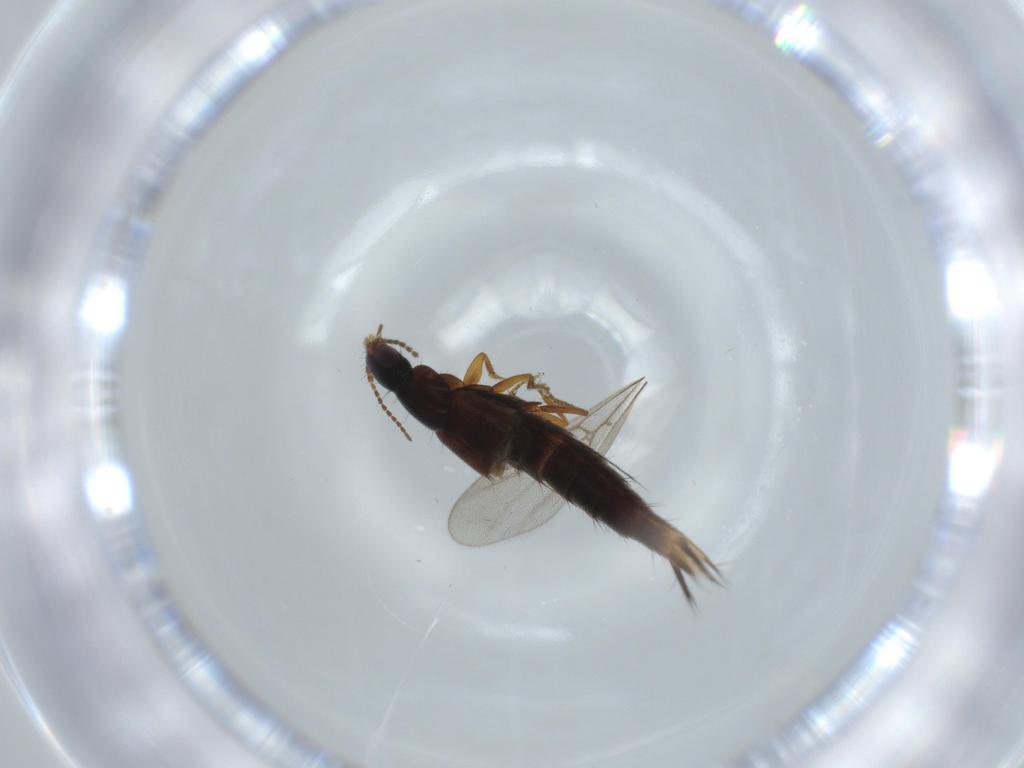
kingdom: Animalia
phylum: Arthropoda
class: Insecta
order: Coleoptera
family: Staphylinidae
